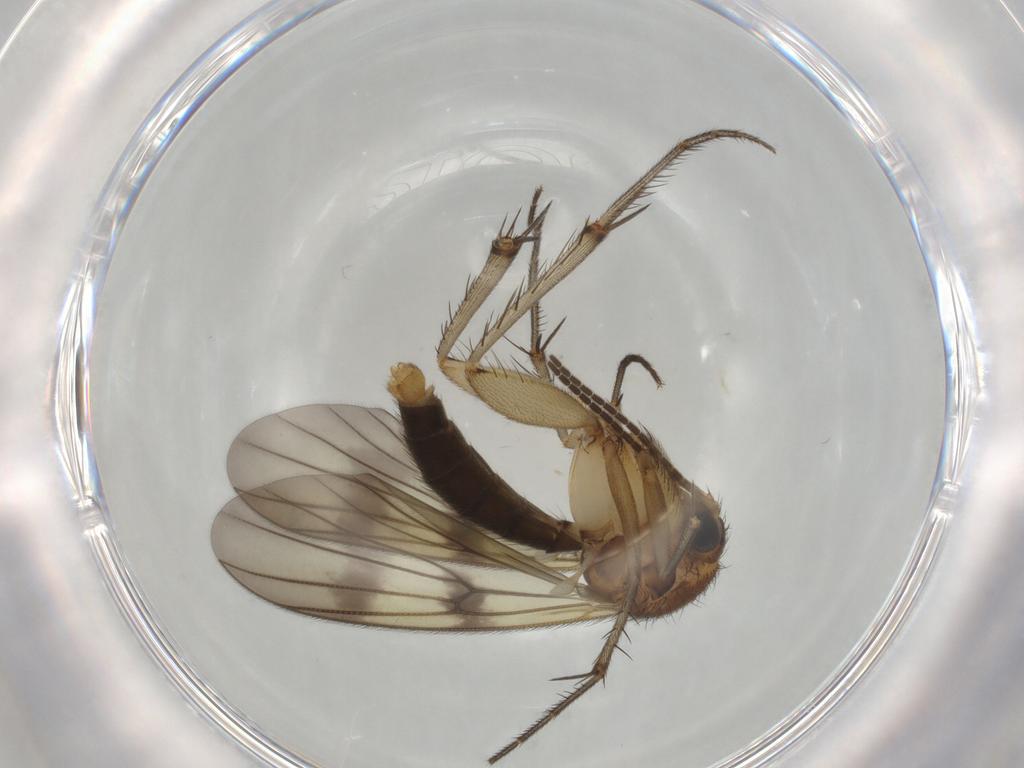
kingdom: Animalia
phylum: Arthropoda
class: Insecta
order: Diptera
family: Mycetophilidae
